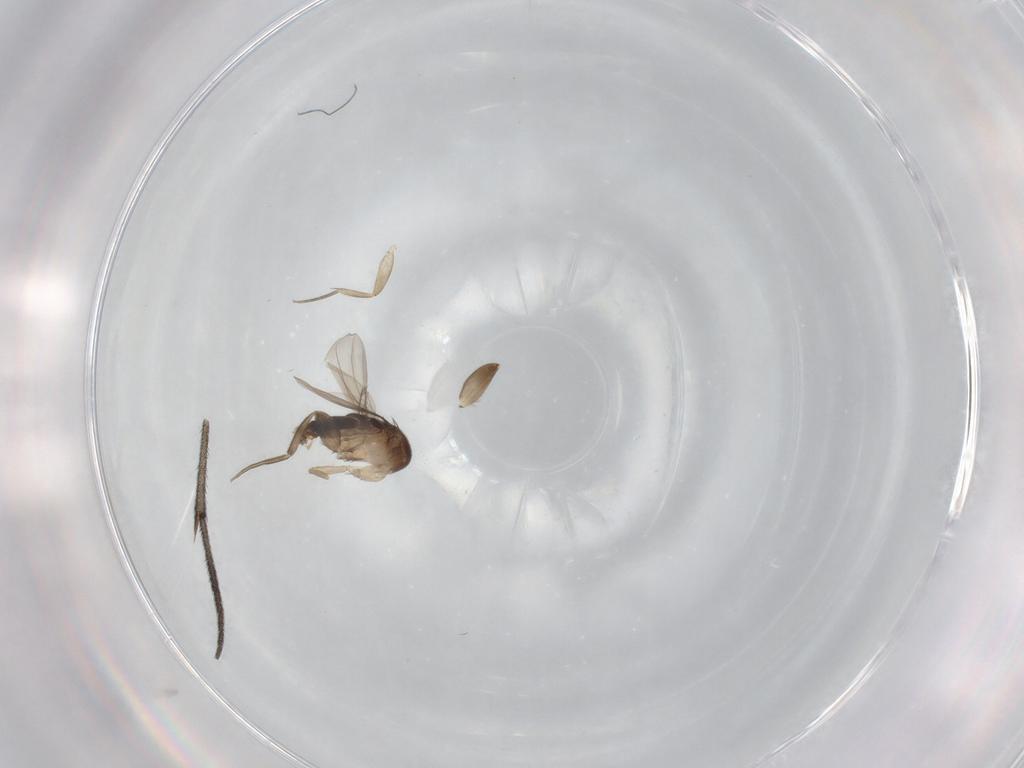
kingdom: Animalia
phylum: Arthropoda
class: Insecta
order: Diptera
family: Phoridae
